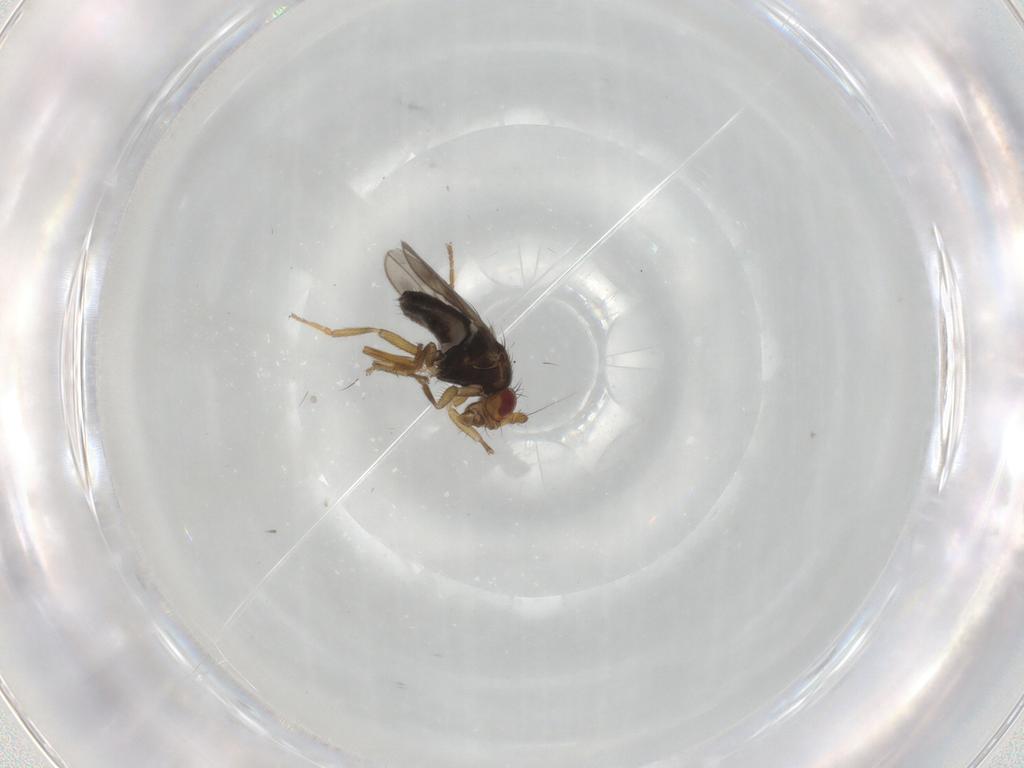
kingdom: Animalia
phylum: Arthropoda
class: Insecta
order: Diptera
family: Sphaeroceridae
